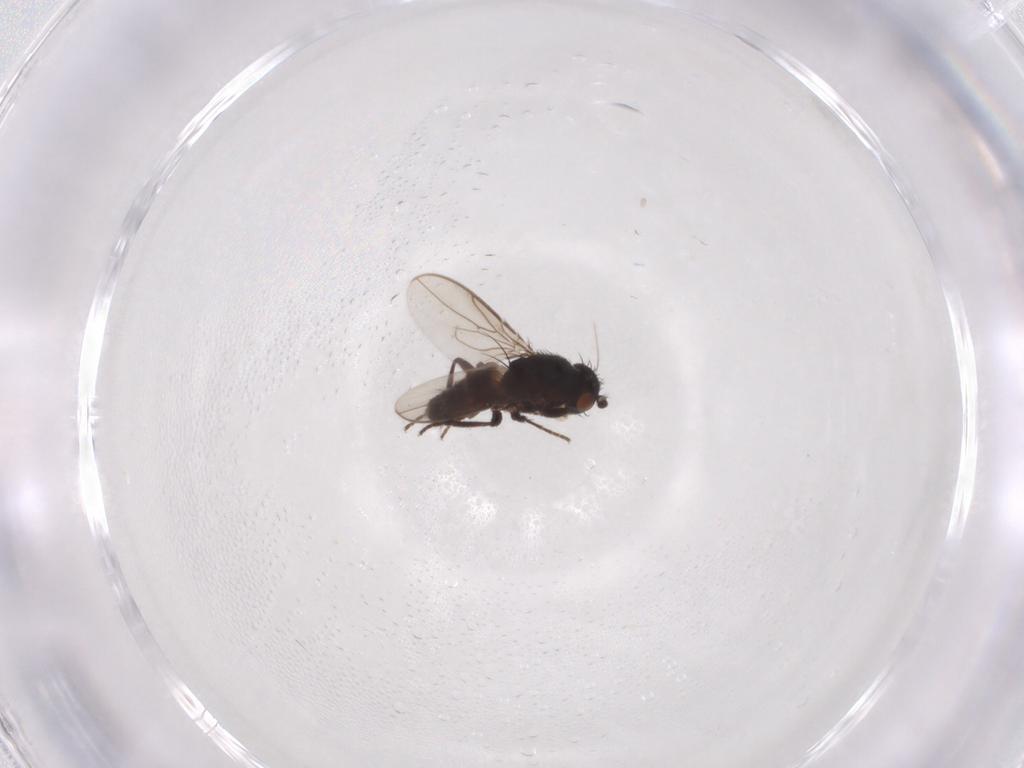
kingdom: Animalia
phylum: Arthropoda
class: Insecta
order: Diptera
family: Sphaeroceridae
